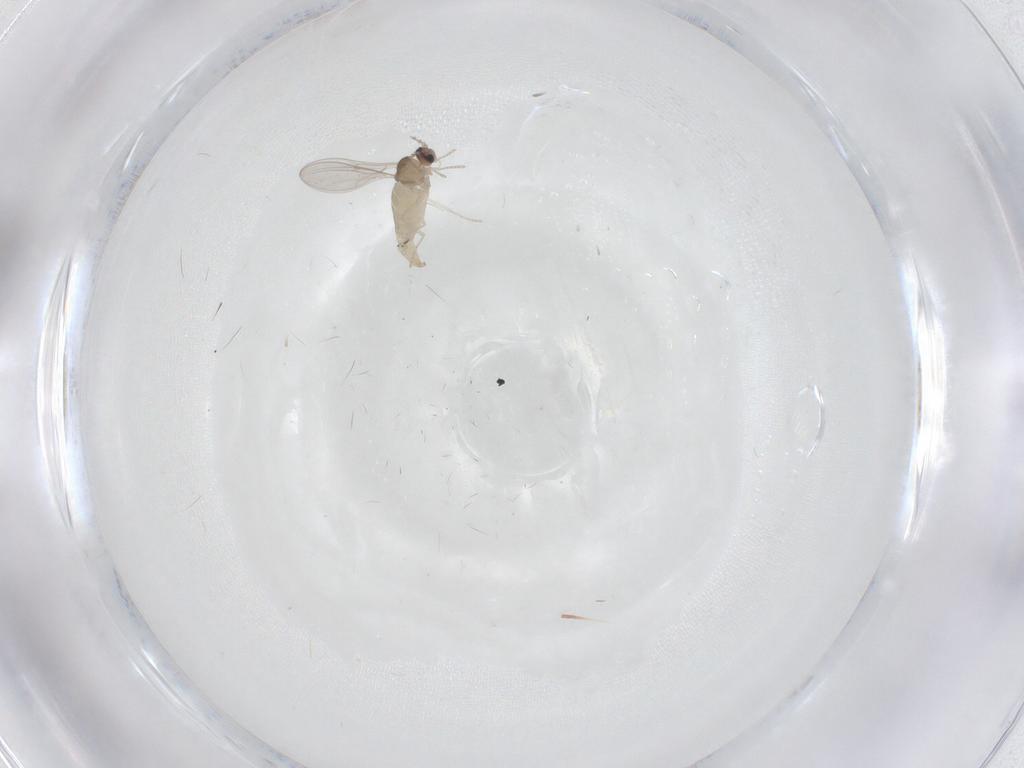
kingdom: Animalia
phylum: Arthropoda
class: Insecta
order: Diptera
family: Cecidomyiidae
